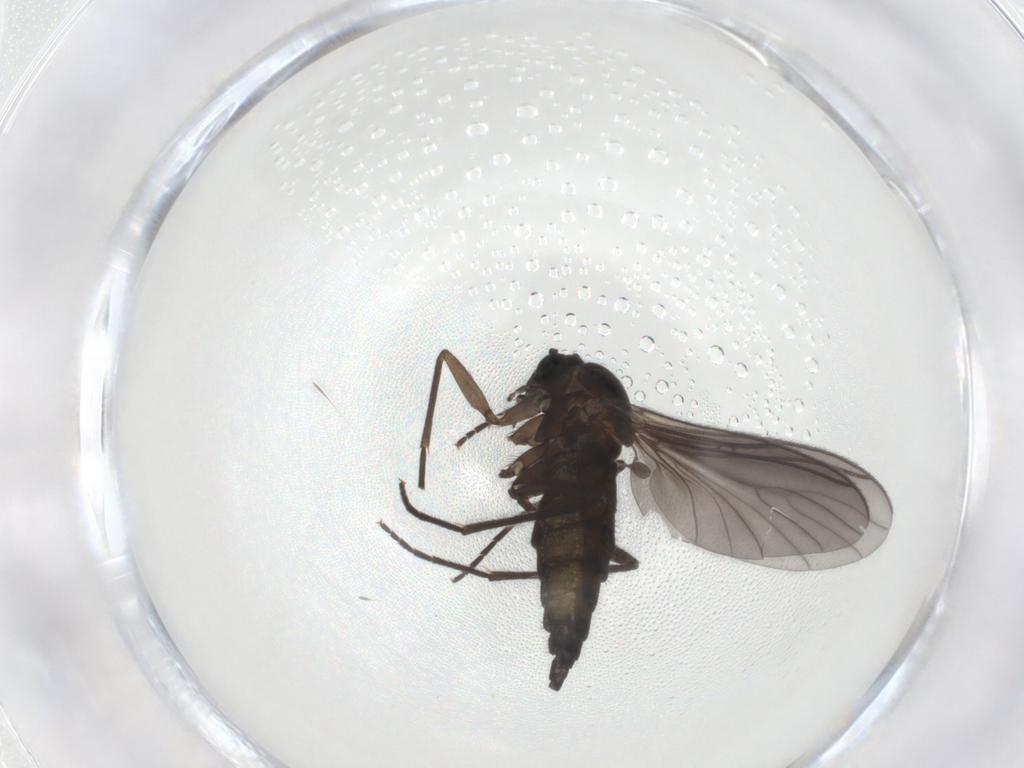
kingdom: Animalia
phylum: Arthropoda
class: Insecta
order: Diptera
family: Sciaridae
